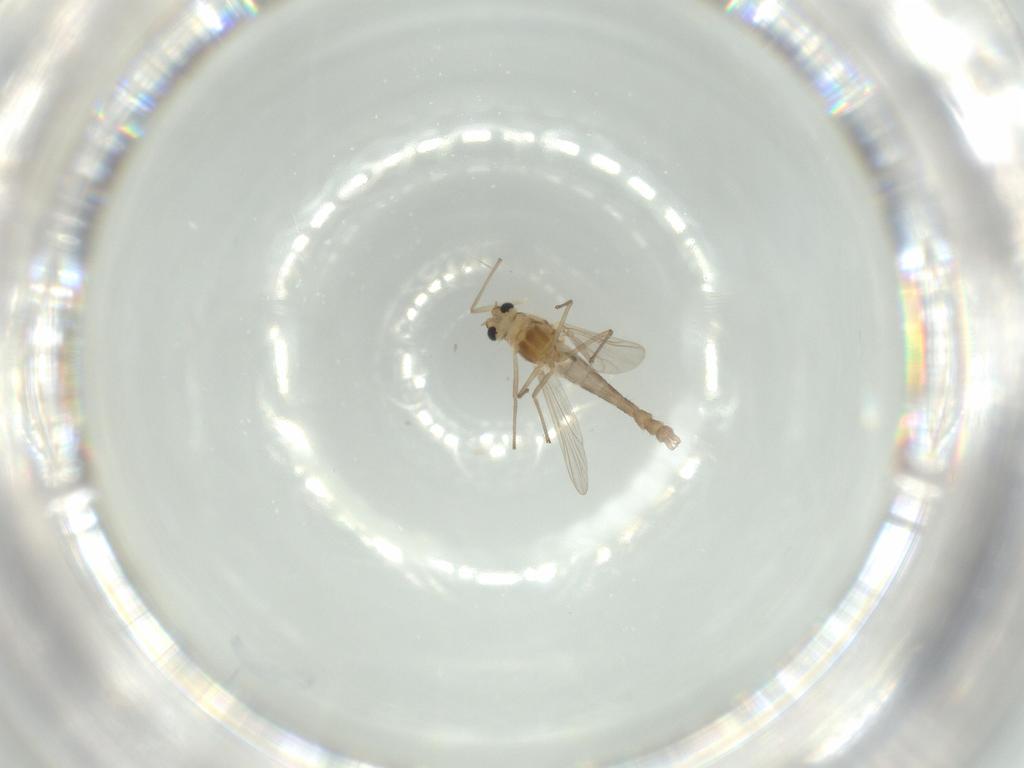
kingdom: Animalia
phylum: Arthropoda
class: Insecta
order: Diptera
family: Chironomidae
